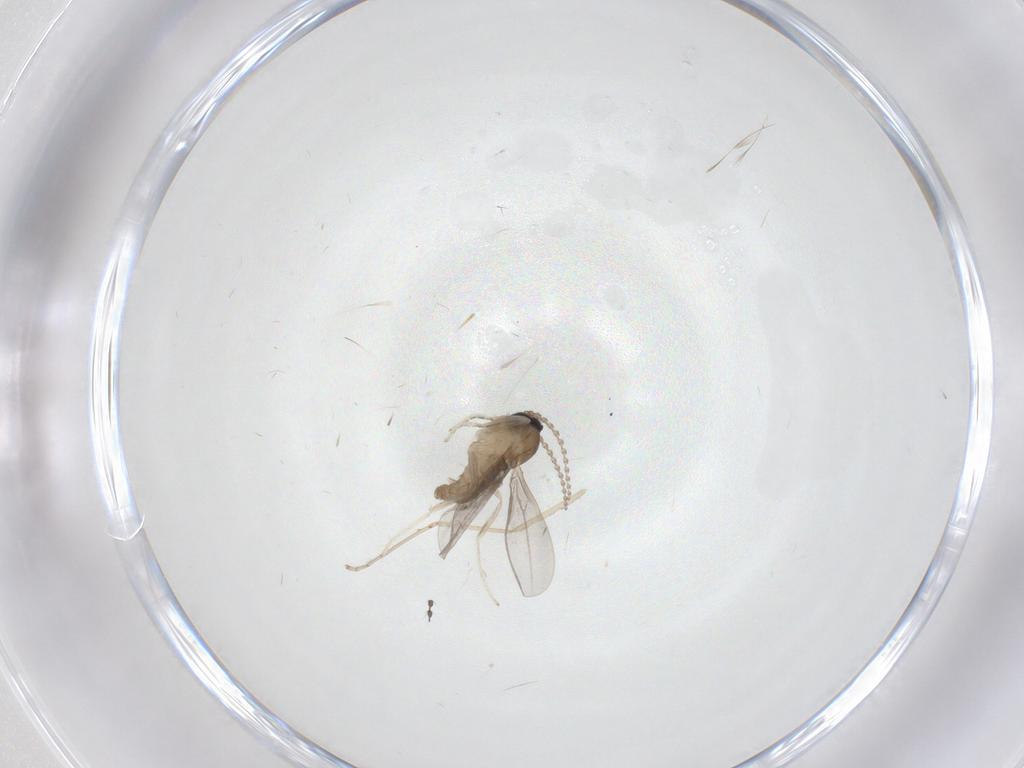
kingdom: Animalia
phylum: Arthropoda
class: Insecta
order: Diptera
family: Cecidomyiidae
